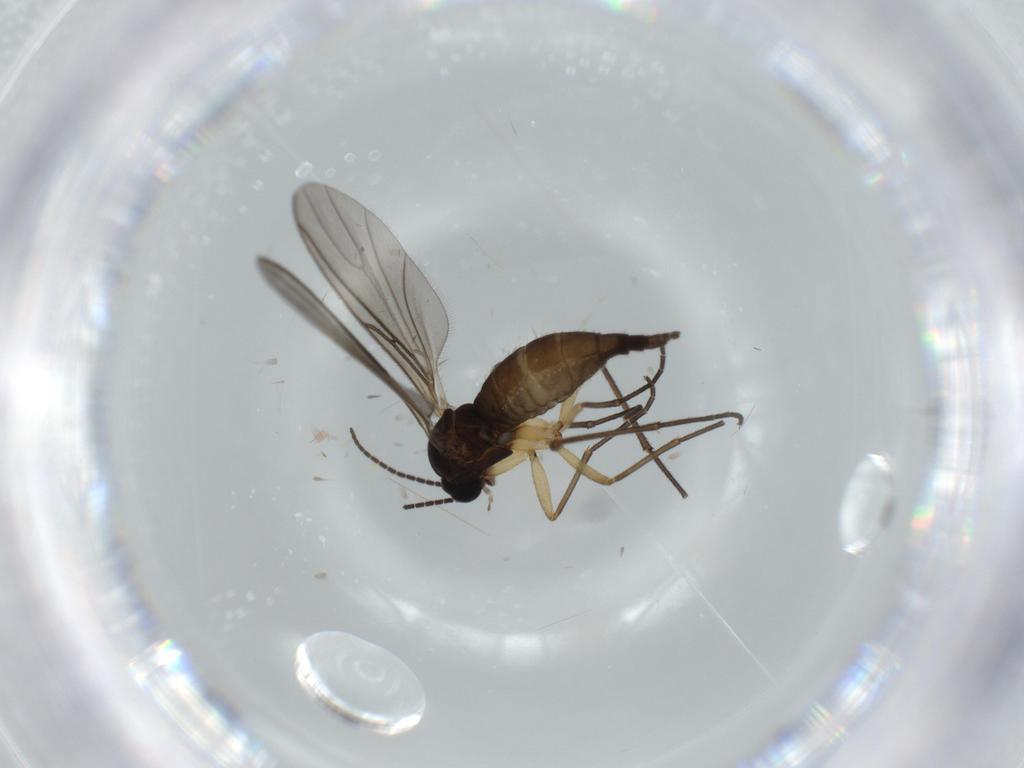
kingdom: Animalia
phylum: Arthropoda
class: Insecta
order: Diptera
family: Sciaridae
